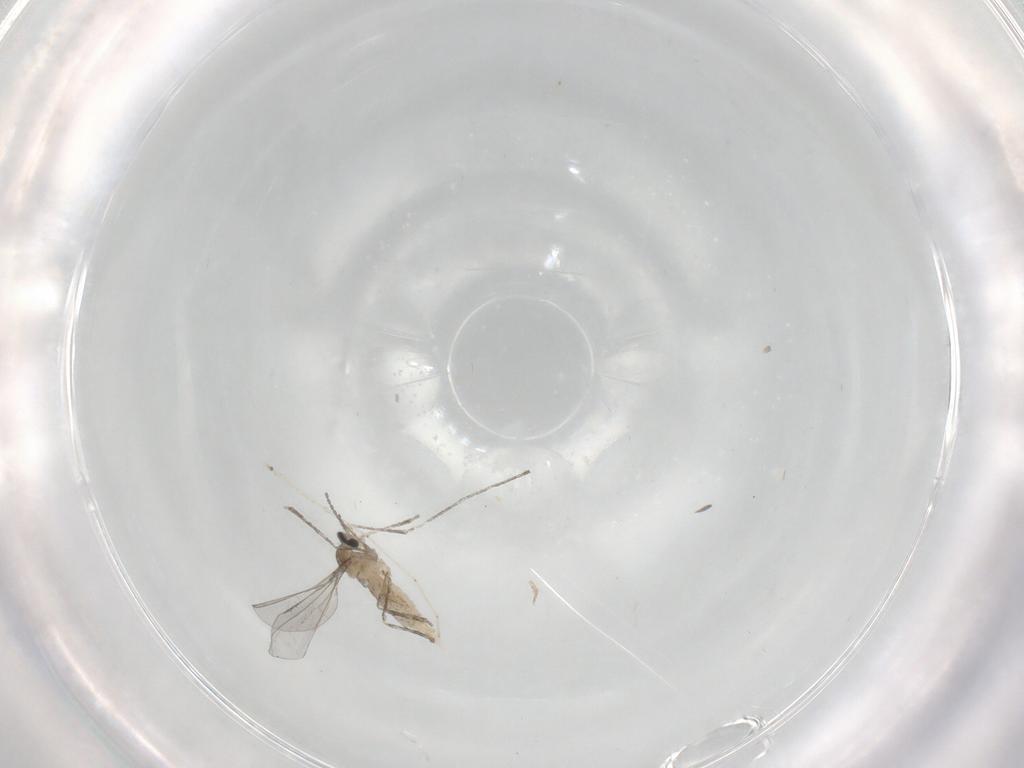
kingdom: Animalia
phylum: Arthropoda
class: Insecta
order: Diptera
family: Cecidomyiidae
